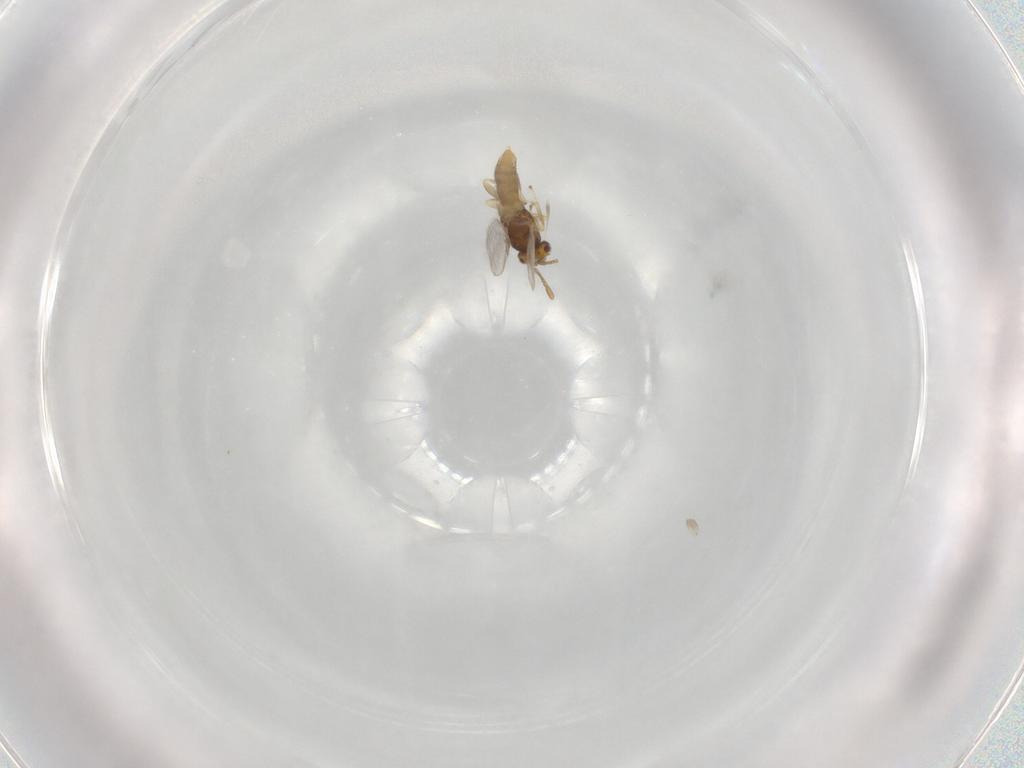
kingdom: Animalia
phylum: Arthropoda
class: Insecta
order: Hymenoptera
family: Encyrtidae
